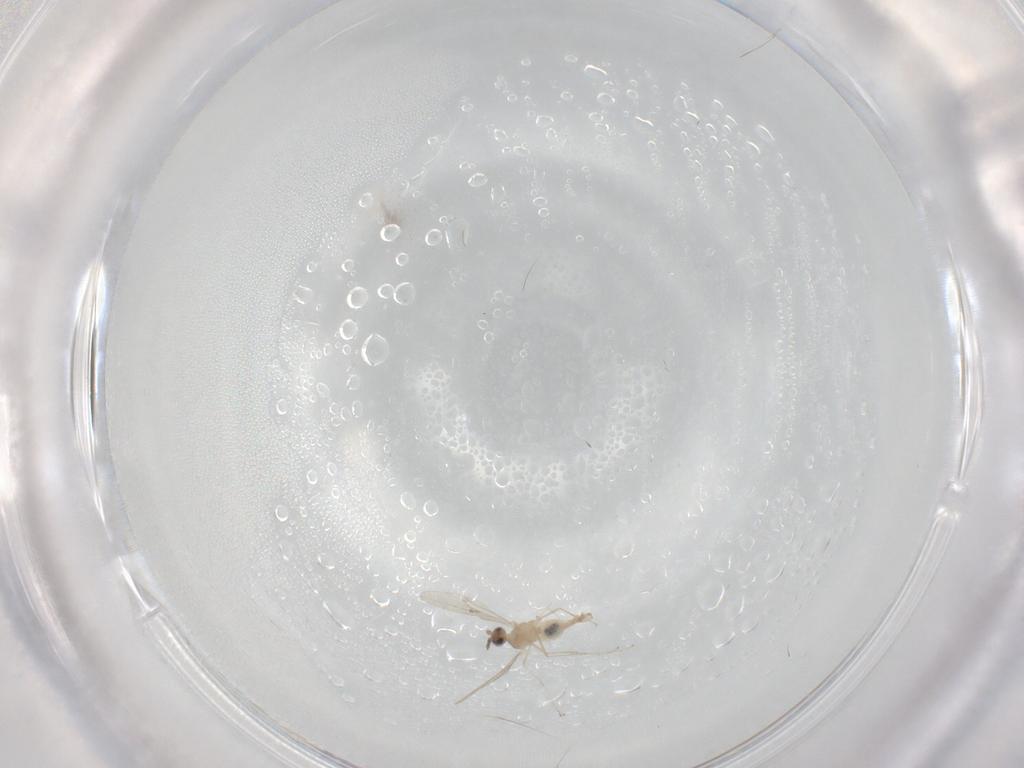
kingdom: Animalia
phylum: Arthropoda
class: Insecta
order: Diptera
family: Cecidomyiidae
